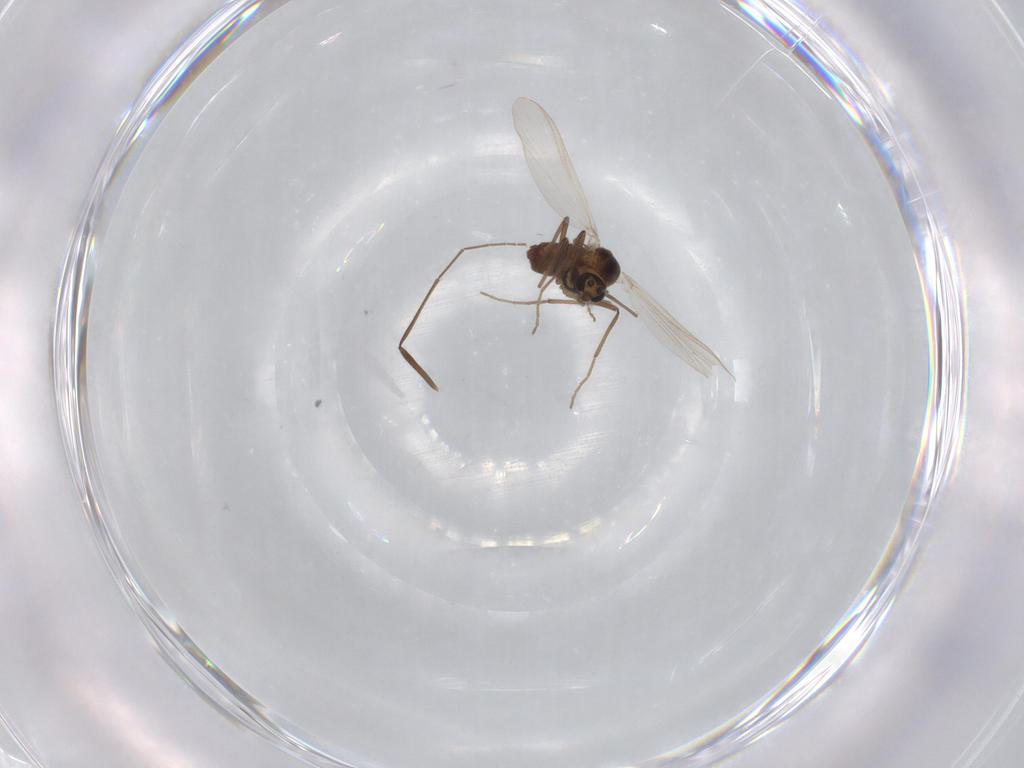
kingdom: Animalia
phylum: Arthropoda
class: Insecta
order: Diptera
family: Chironomidae
